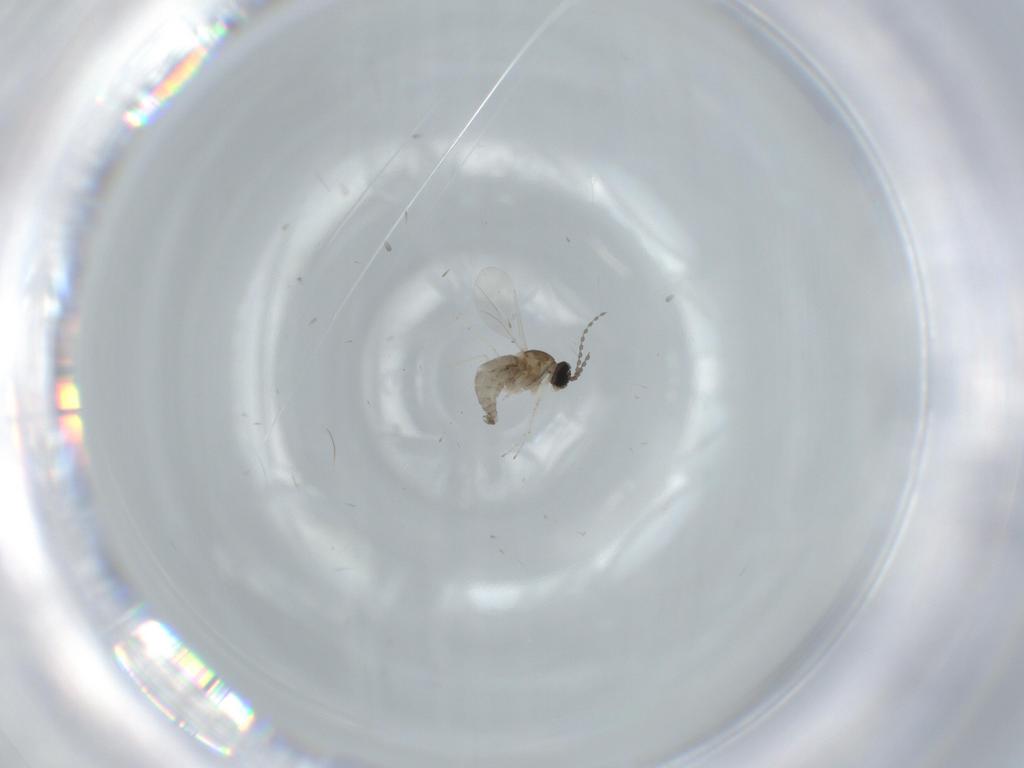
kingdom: Animalia
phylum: Arthropoda
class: Insecta
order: Diptera
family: Cecidomyiidae
